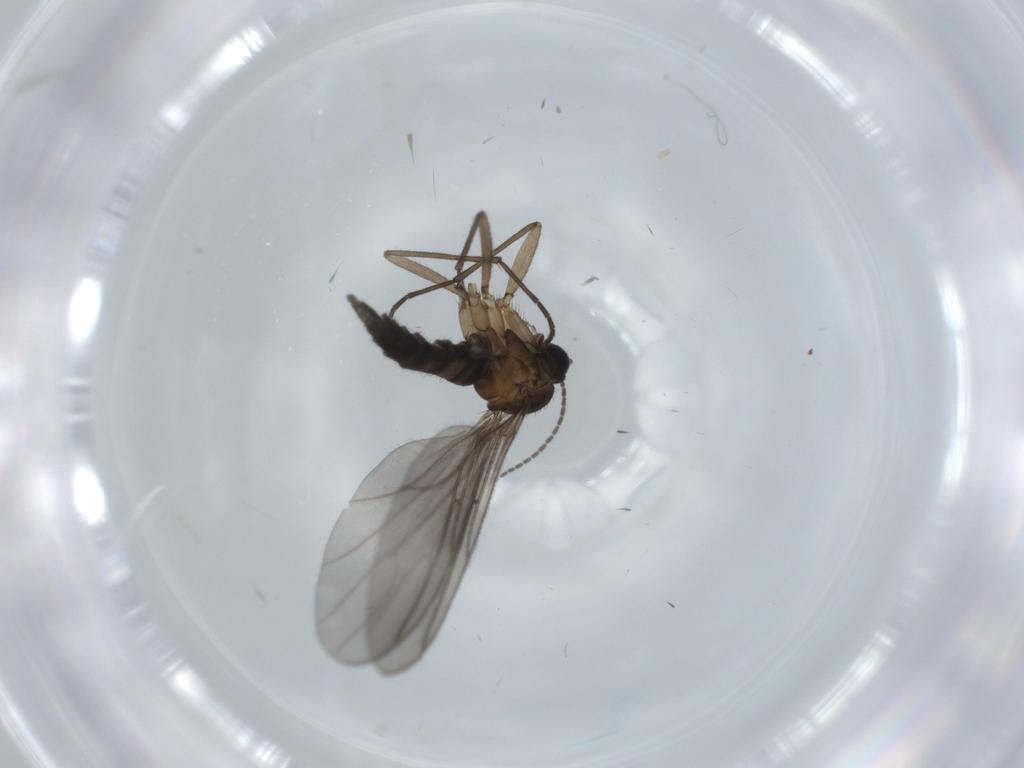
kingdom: Animalia
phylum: Arthropoda
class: Insecta
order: Diptera
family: Sciaridae
